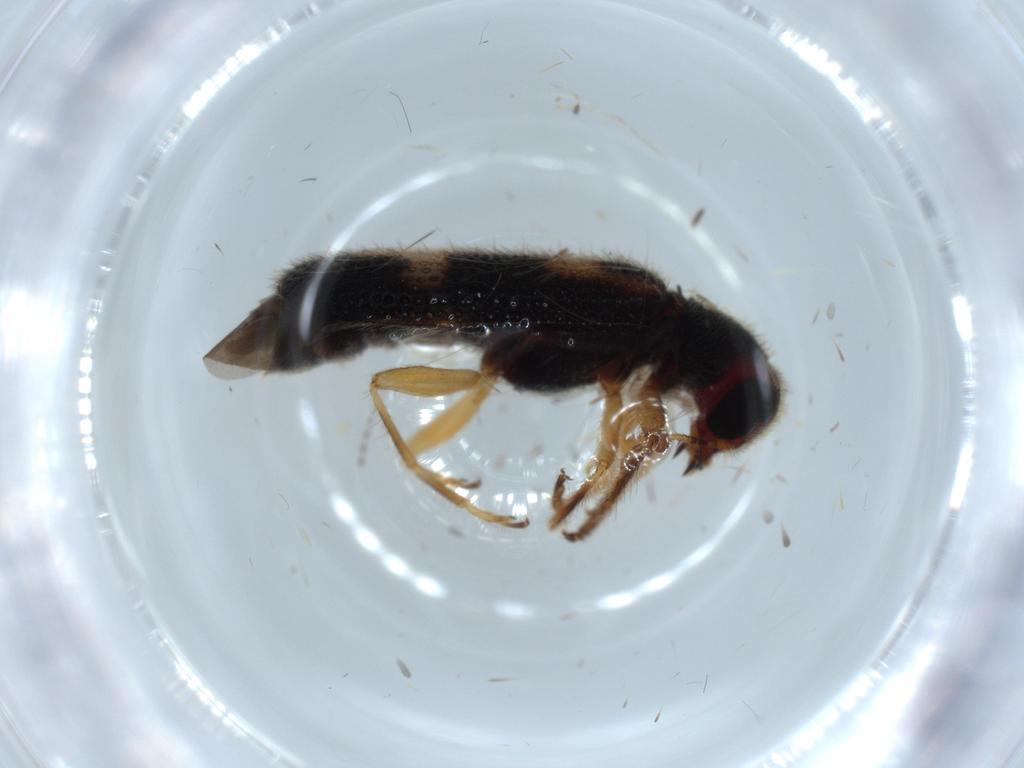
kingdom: Animalia
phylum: Arthropoda
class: Insecta
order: Coleoptera
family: Cleridae
